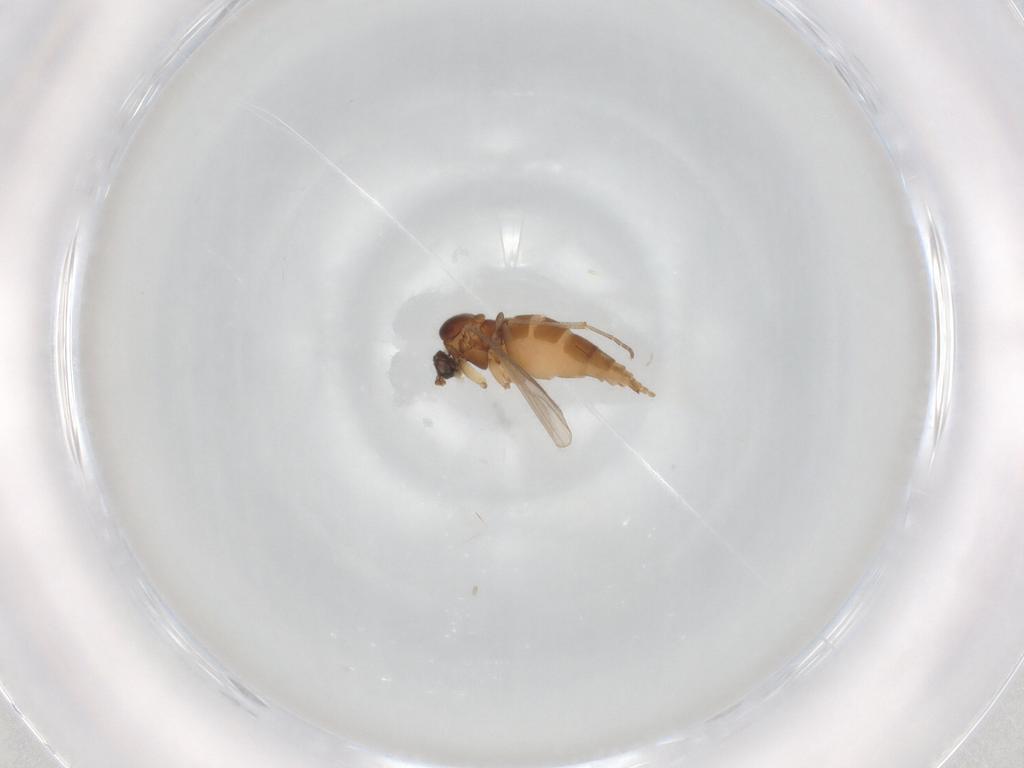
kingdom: Animalia
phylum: Arthropoda
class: Insecta
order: Diptera
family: Sciaridae
